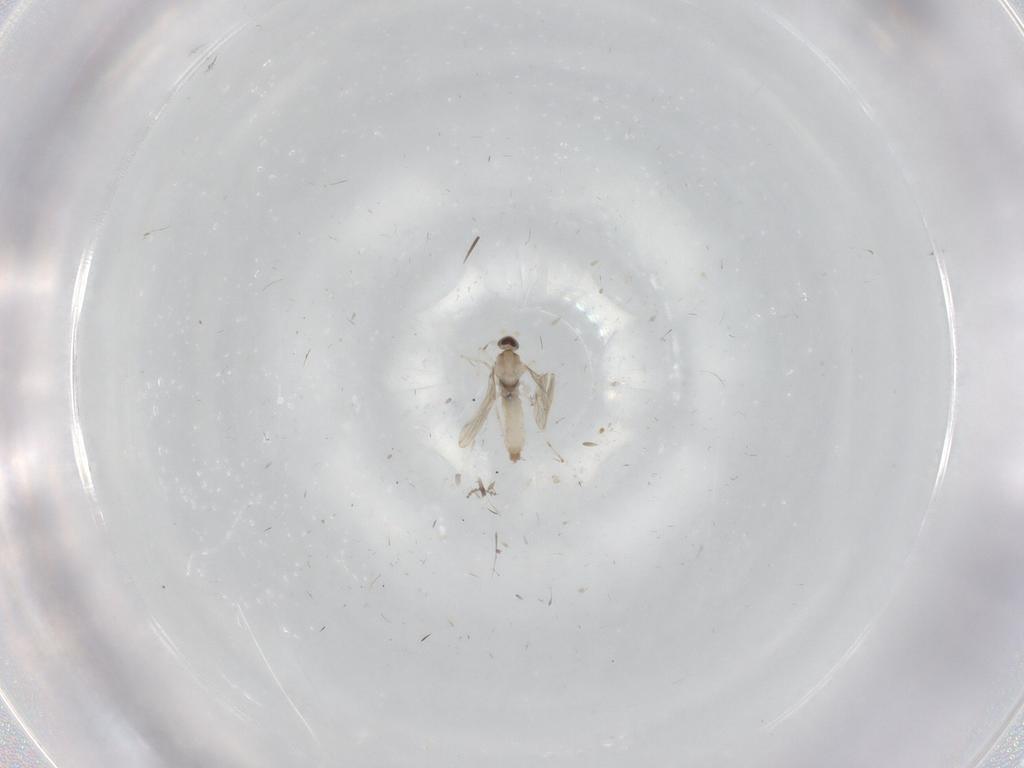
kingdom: Animalia
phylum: Arthropoda
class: Insecta
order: Diptera
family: Cecidomyiidae
